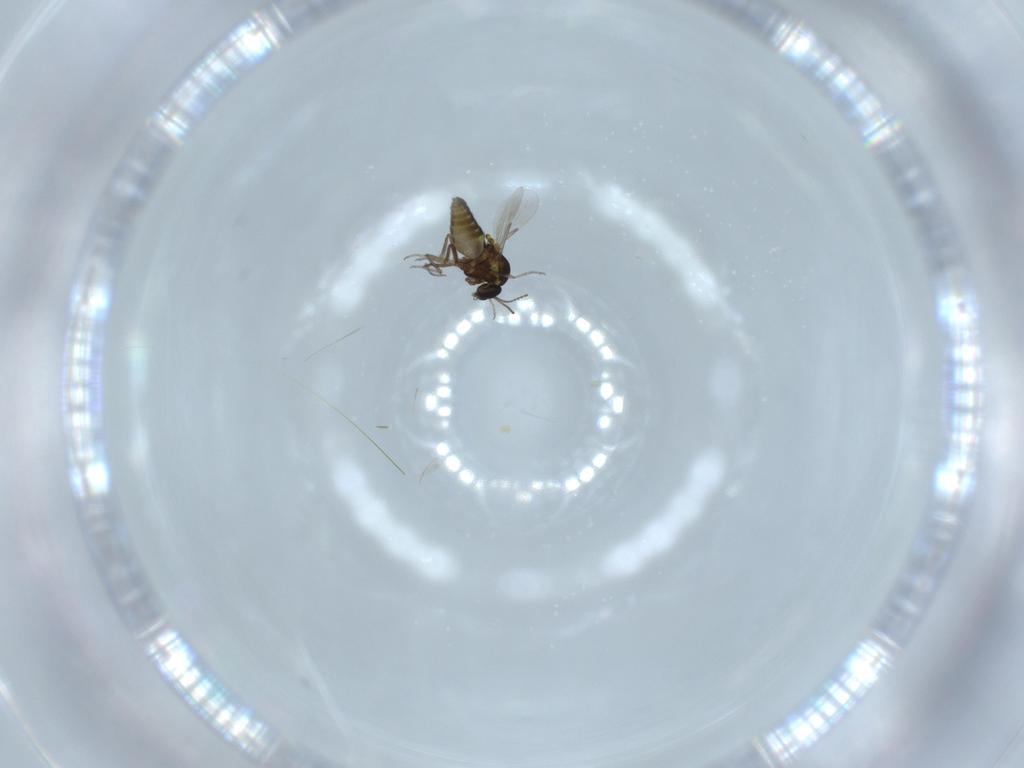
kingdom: Animalia
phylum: Arthropoda
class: Insecta
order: Diptera
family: Ceratopogonidae
